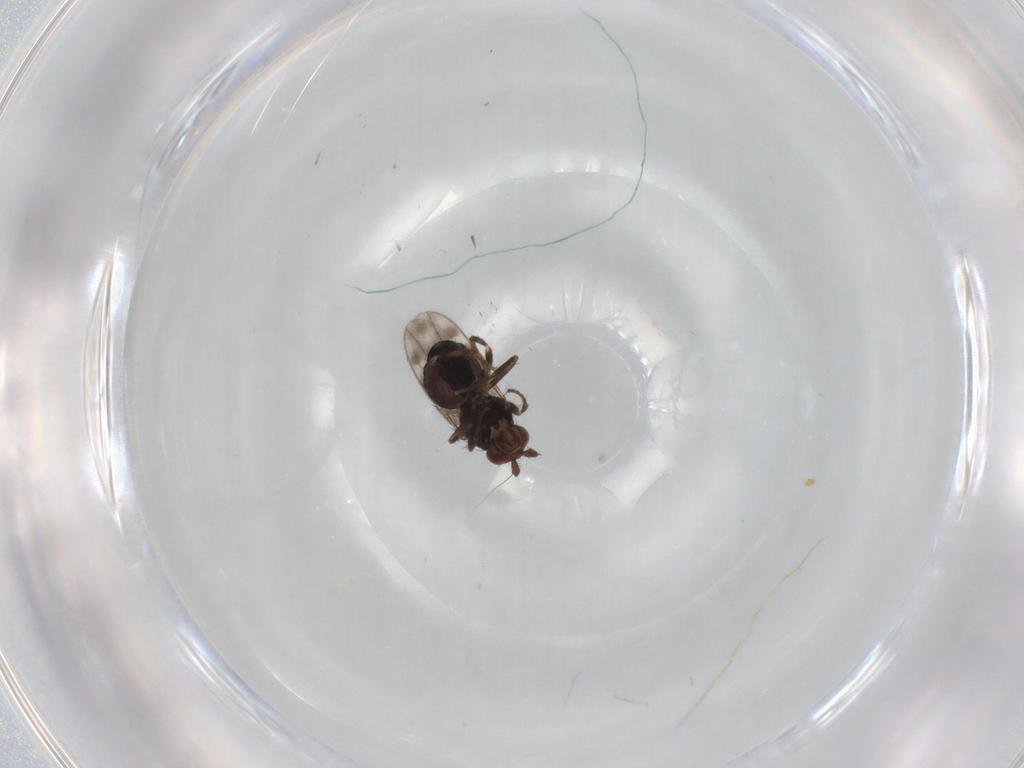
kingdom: Animalia
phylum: Arthropoda
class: Insecta
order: Diptera
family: Sphaeroceridae
